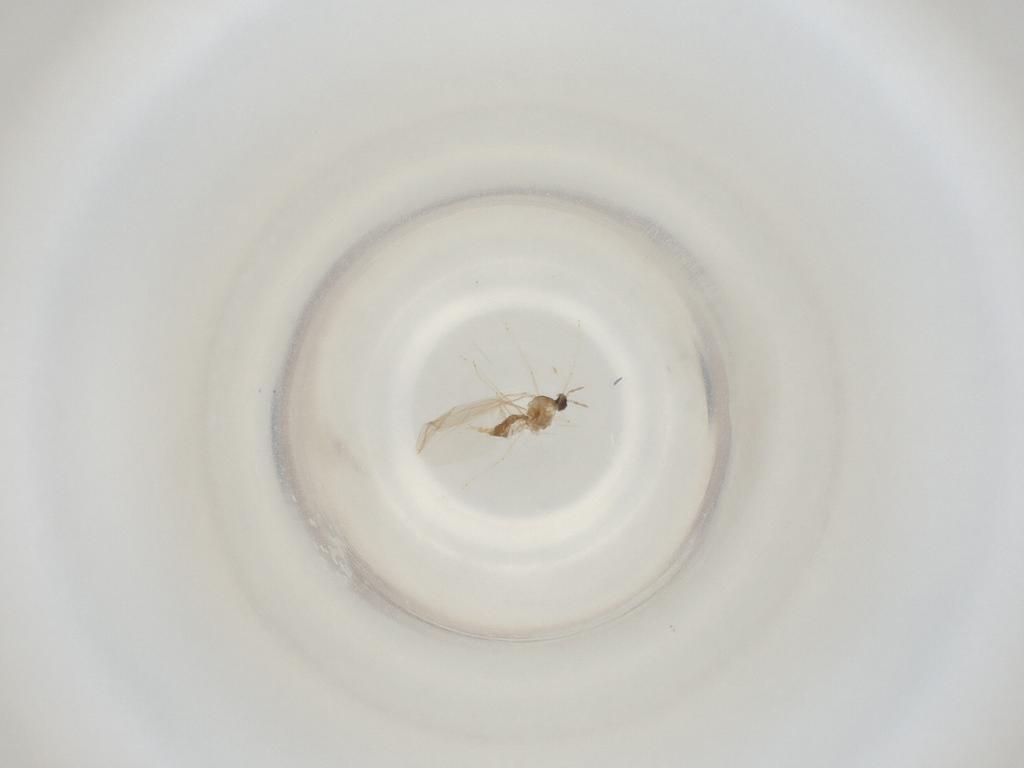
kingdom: Animalia
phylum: Arthropoda
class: Insecta
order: Diptera
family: Cecidomyiidae
